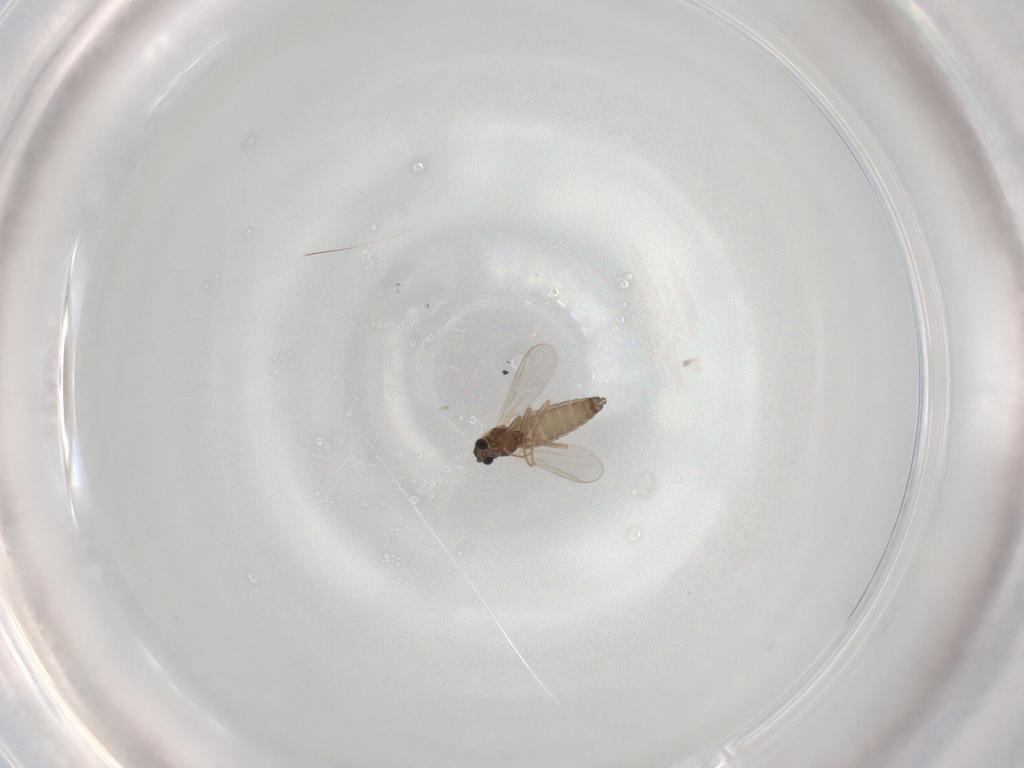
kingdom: Animalia
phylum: Arthropoda
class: Insecta
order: Diptera
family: Chironomidae
